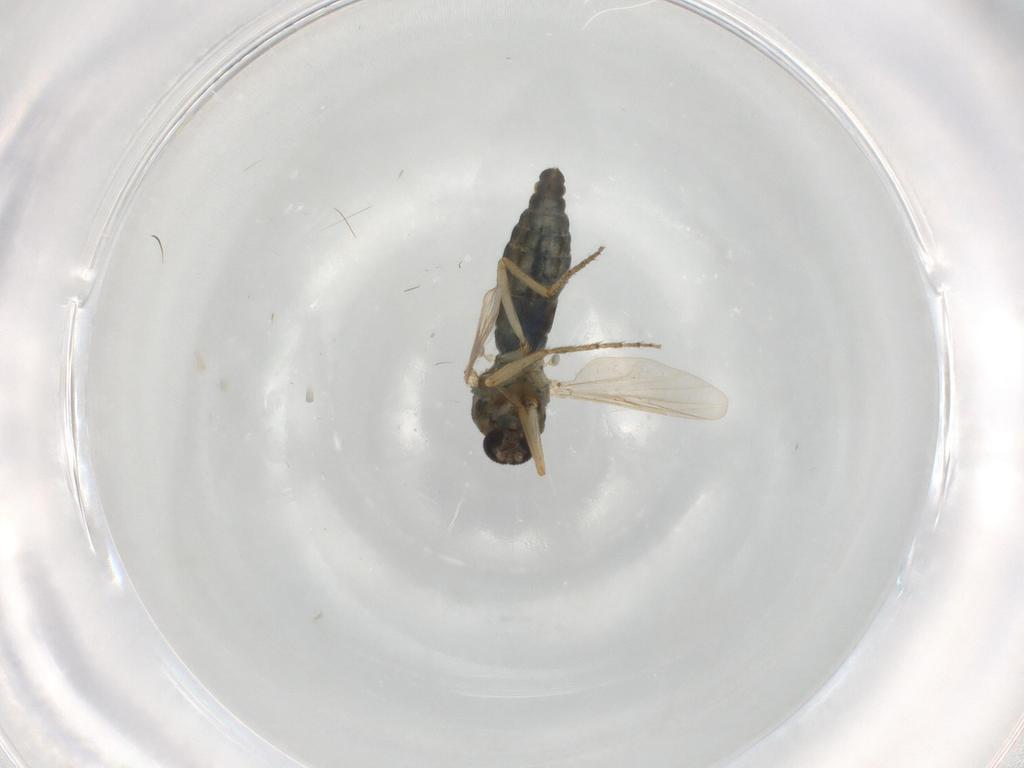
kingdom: Animalia
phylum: Arthropoda
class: Insecta
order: Diptera
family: Ceratopogonidae
